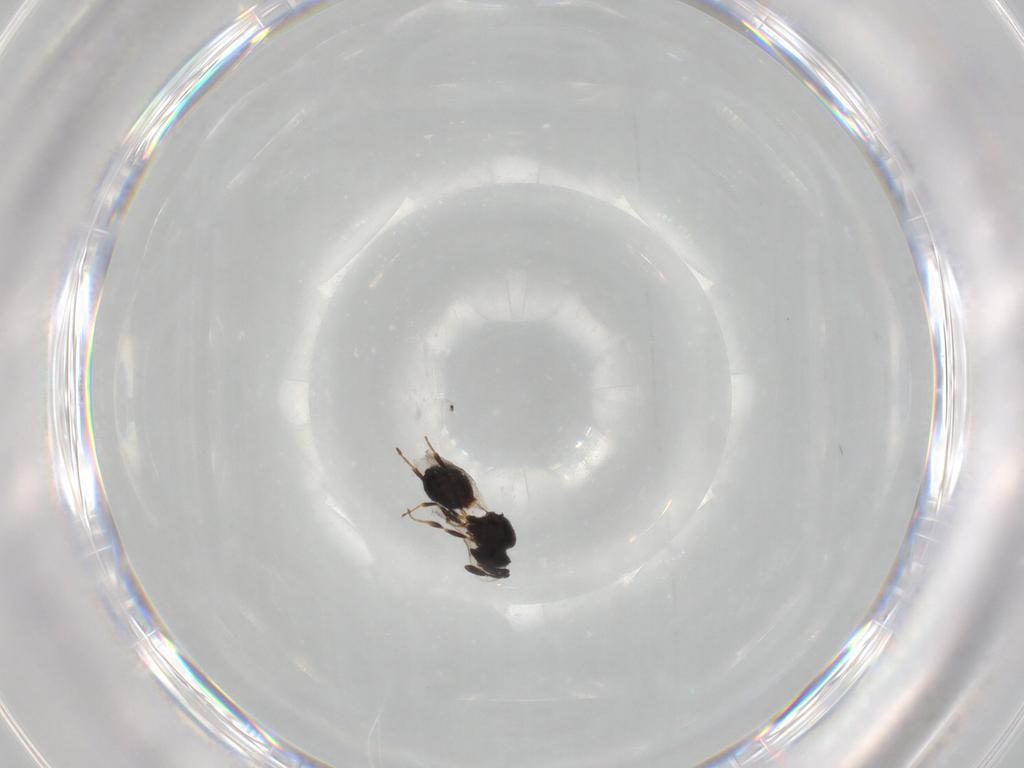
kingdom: Animalia
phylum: Arthropoda
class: Insecta
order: Hymenoptera
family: Scelionidae
